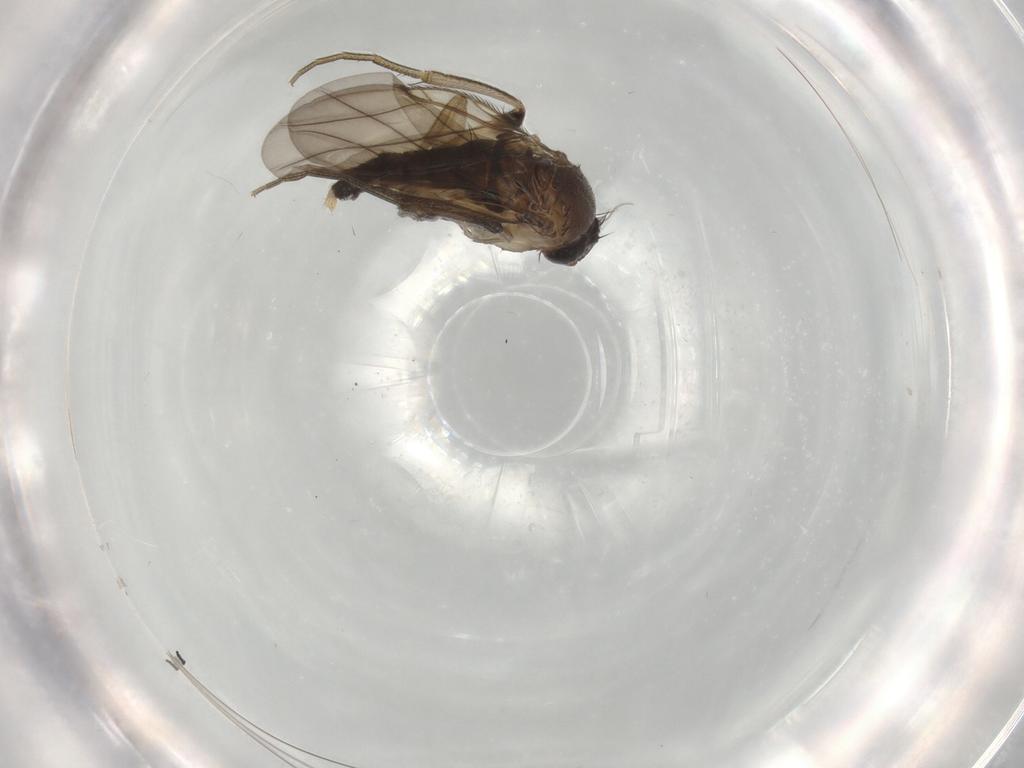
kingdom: Animalia
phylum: Arthropoda
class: Insecta
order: Diptera
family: Phoridae
